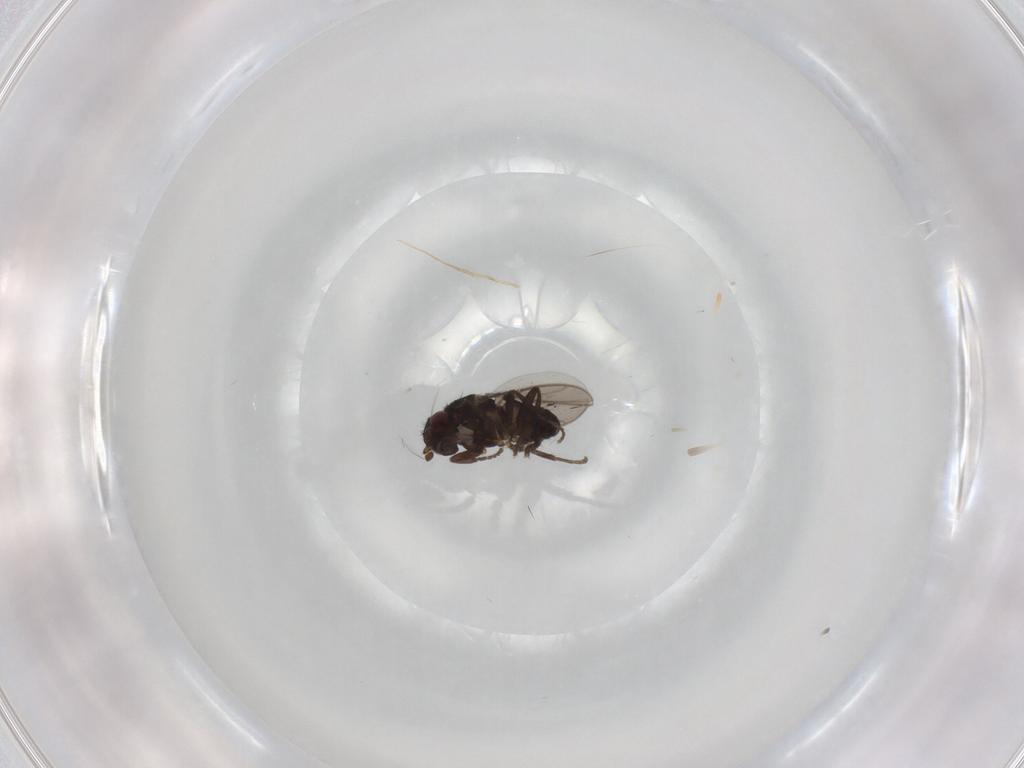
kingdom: Animalia
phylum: Arthropoda
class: Insecta
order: Diptera
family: Sphaeroceridae
